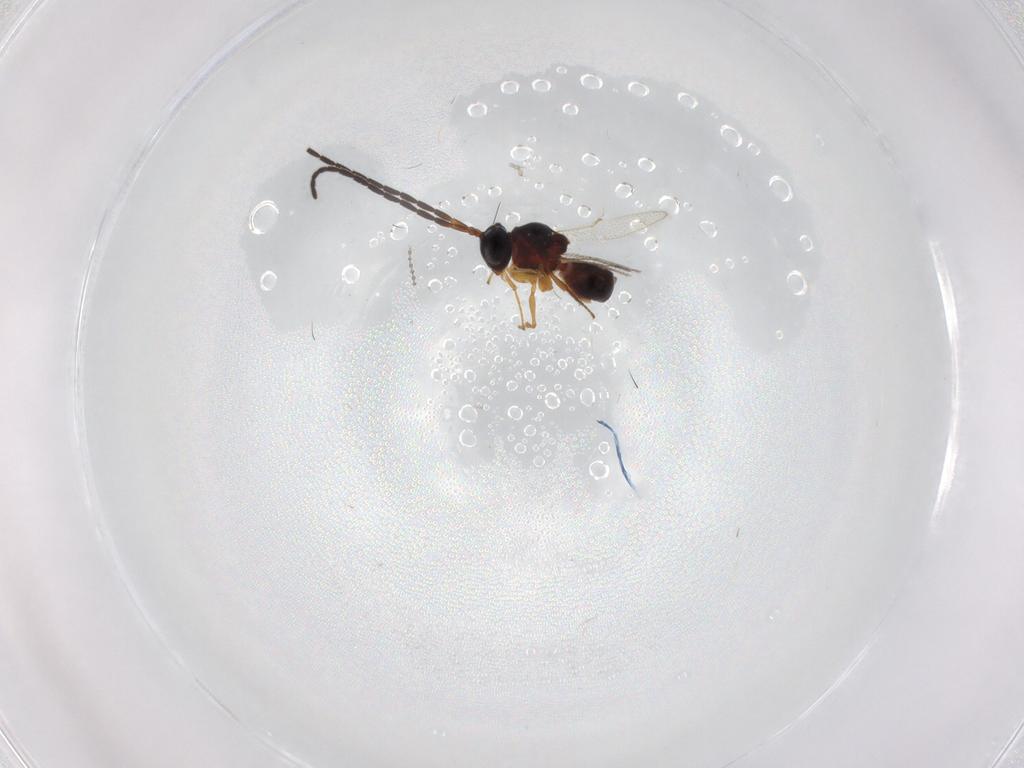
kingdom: Animalia
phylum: Arthropoda
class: Insecta
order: Hymenoptera
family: Figitidae
